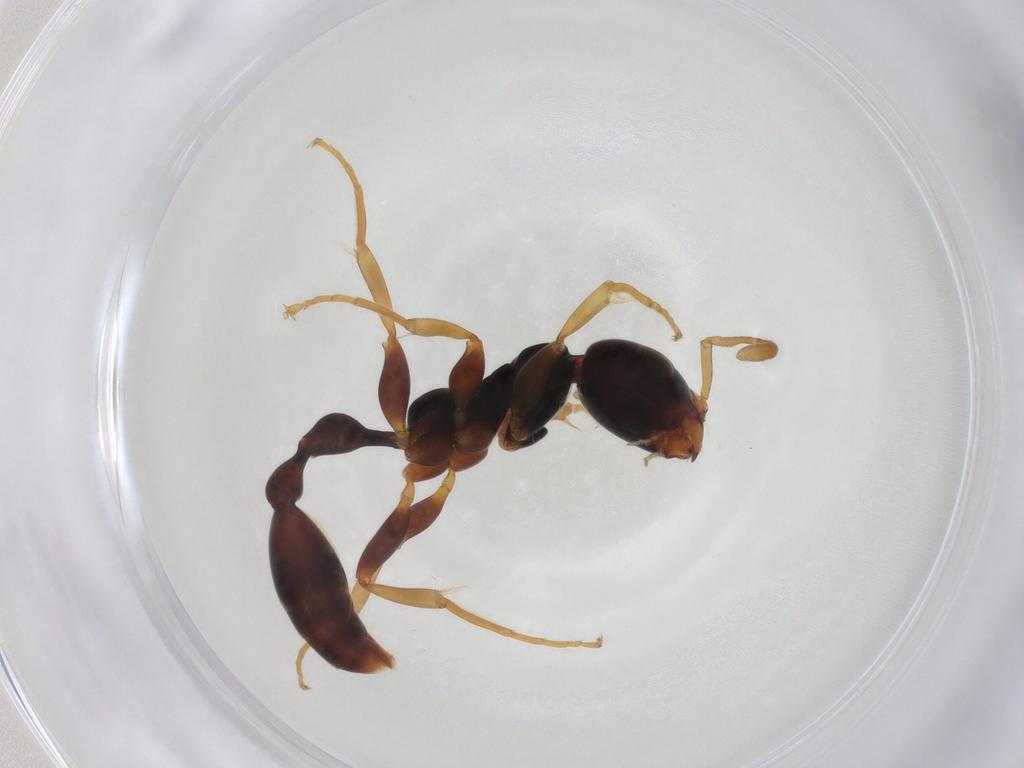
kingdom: Animalia
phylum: Arthropoda
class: Insecta
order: Hymenoptera
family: Formicidae
